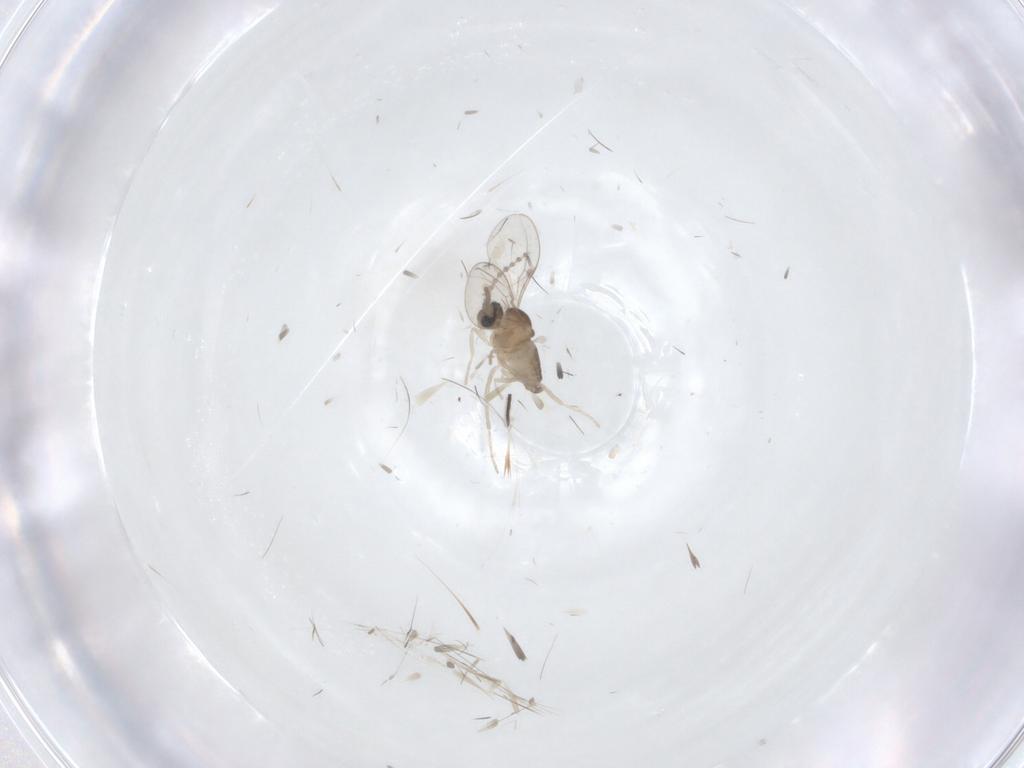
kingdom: Animalia
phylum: Arthropoda
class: Insecta
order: Diptera
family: Cecidomyiidae
